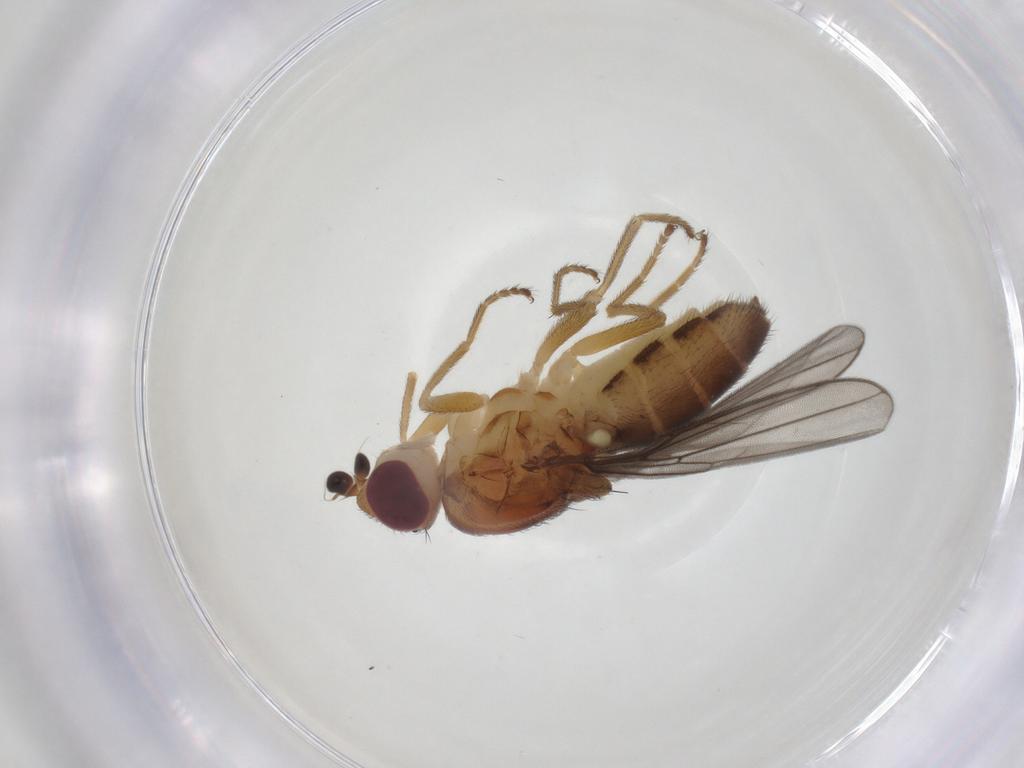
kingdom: Animalia
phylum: Arthropoda
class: Insecta
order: Diptera
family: Chloropidae
